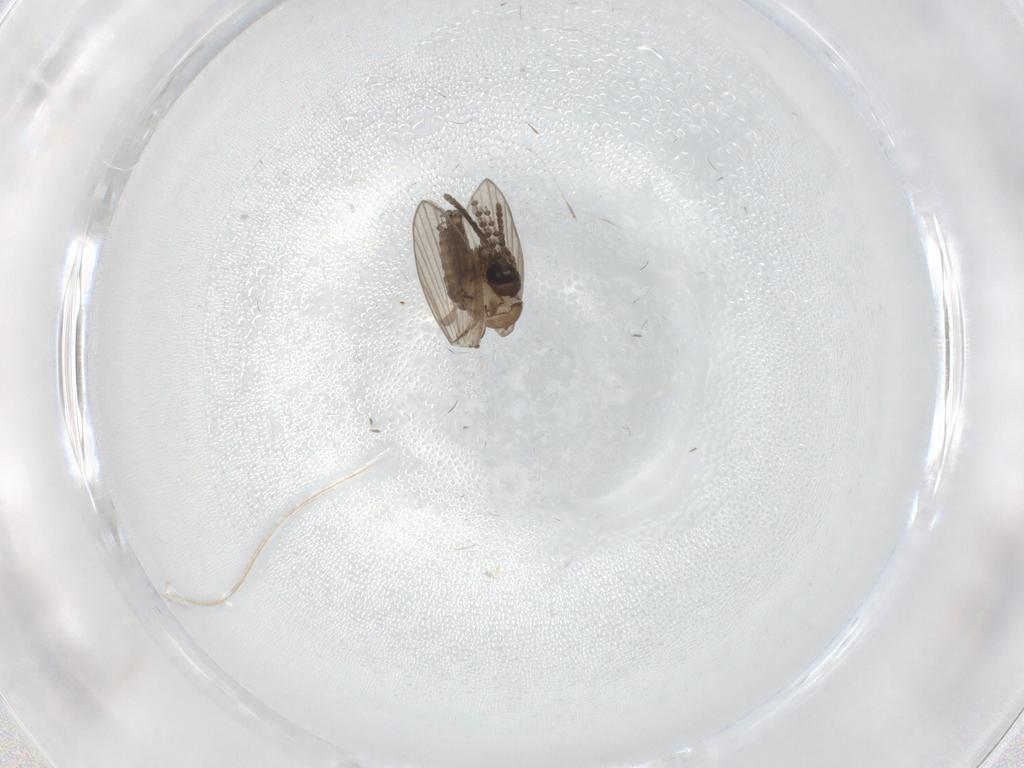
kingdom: Animalia
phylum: Arthropoda
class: Insecta
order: Diptera
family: Psychodidae
